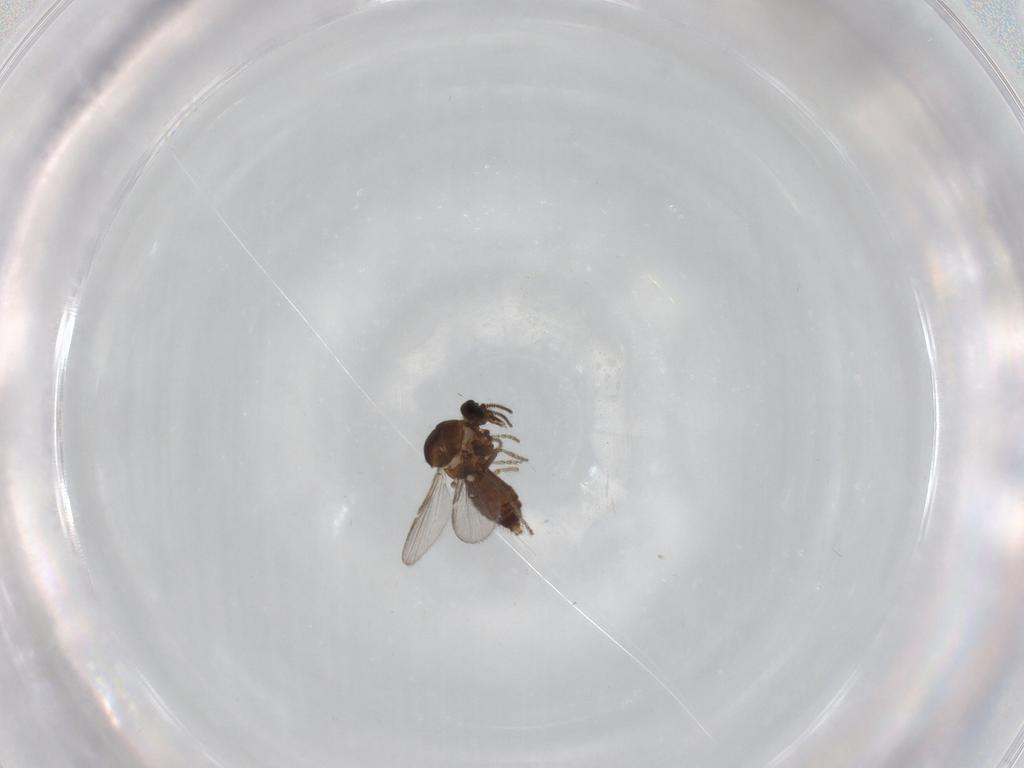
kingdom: Animalia
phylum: Arthropoda
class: Insecta
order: Diptera
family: Ceratopogonidae
